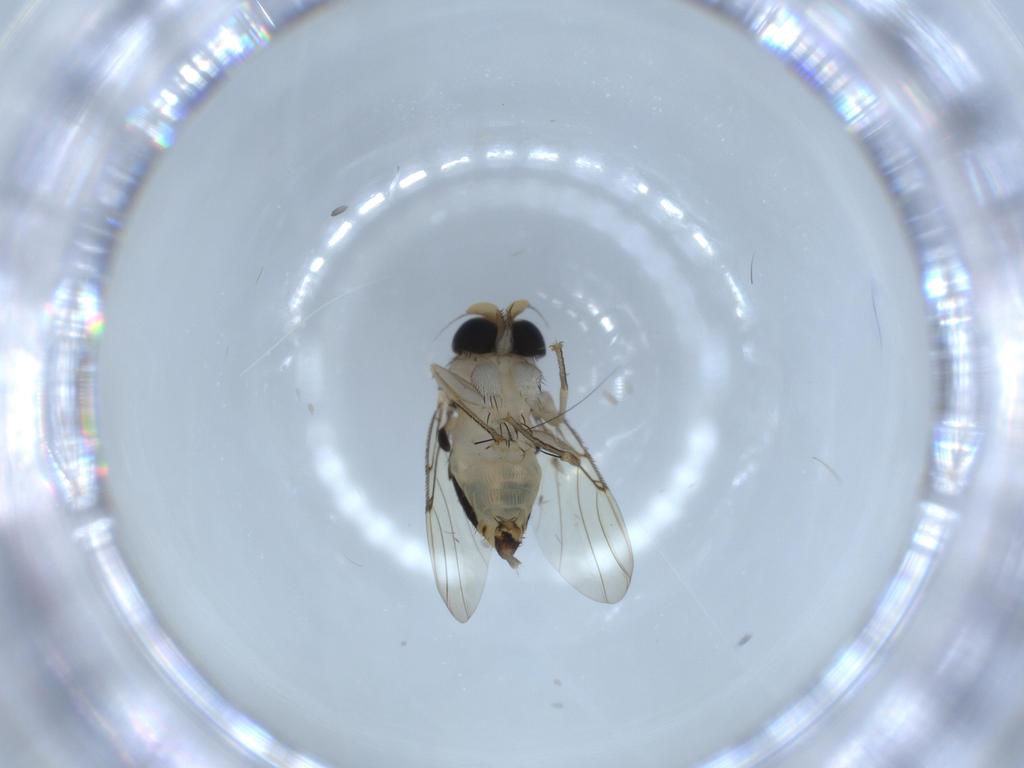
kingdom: Animalia
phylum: Arthropoda
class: Insecta
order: Diptera
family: Phoridae
